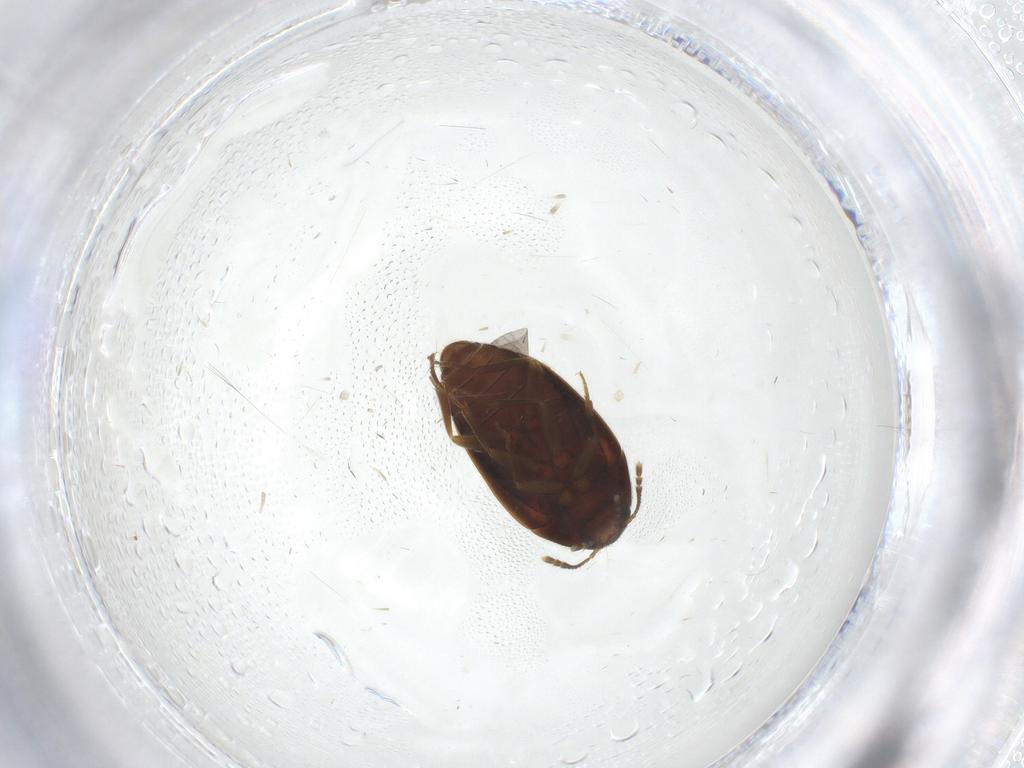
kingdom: Animalia
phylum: Arthropoda
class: Insecta
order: Coleoptera
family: Mycetophagidae
